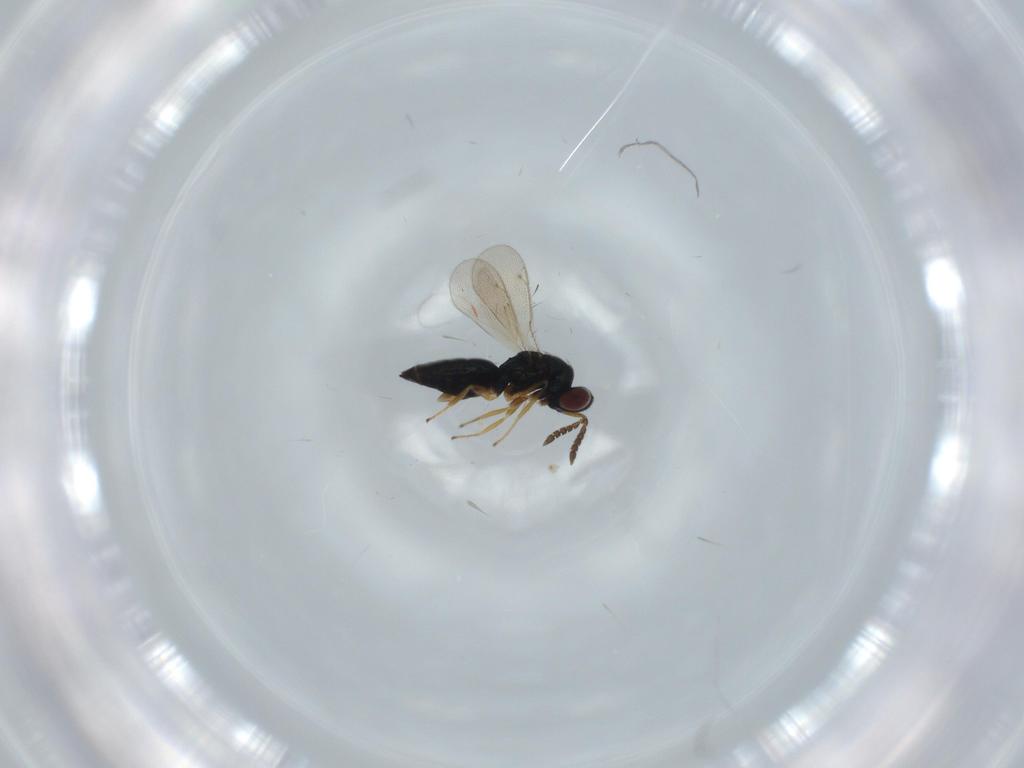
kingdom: Animalia
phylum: Arthropoda
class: Insecta
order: Hymenoptera
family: Dryinidae
